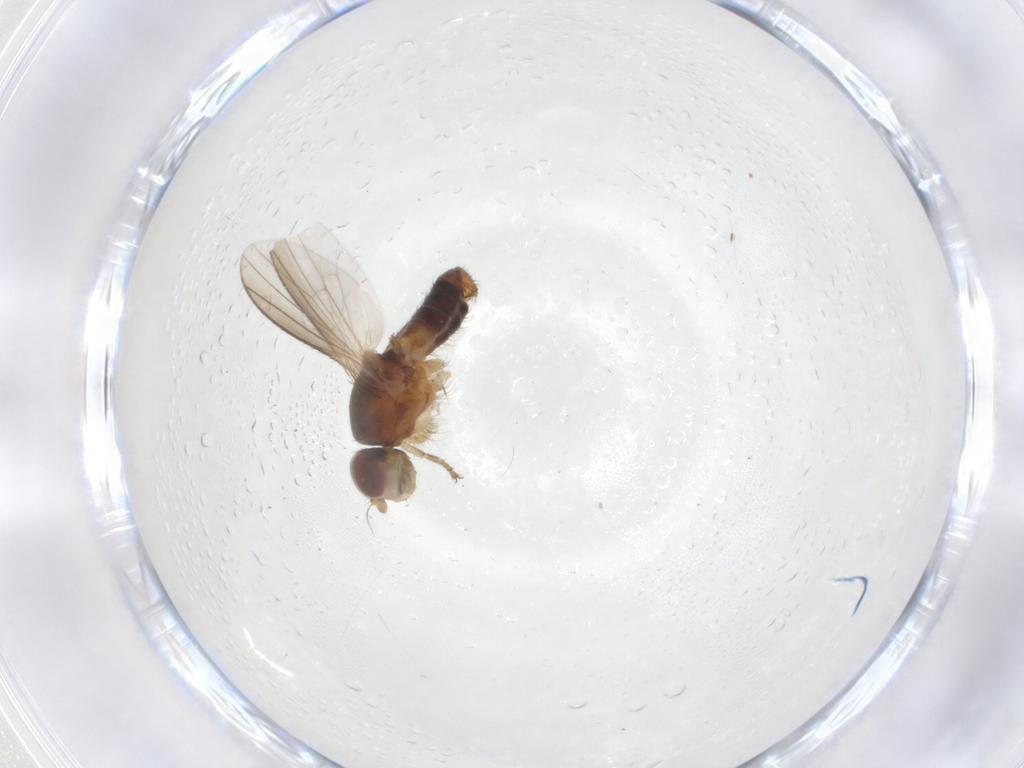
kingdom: Animalia
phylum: Arthropoda
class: Insecta
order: Diptera
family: Heleomyzidae
